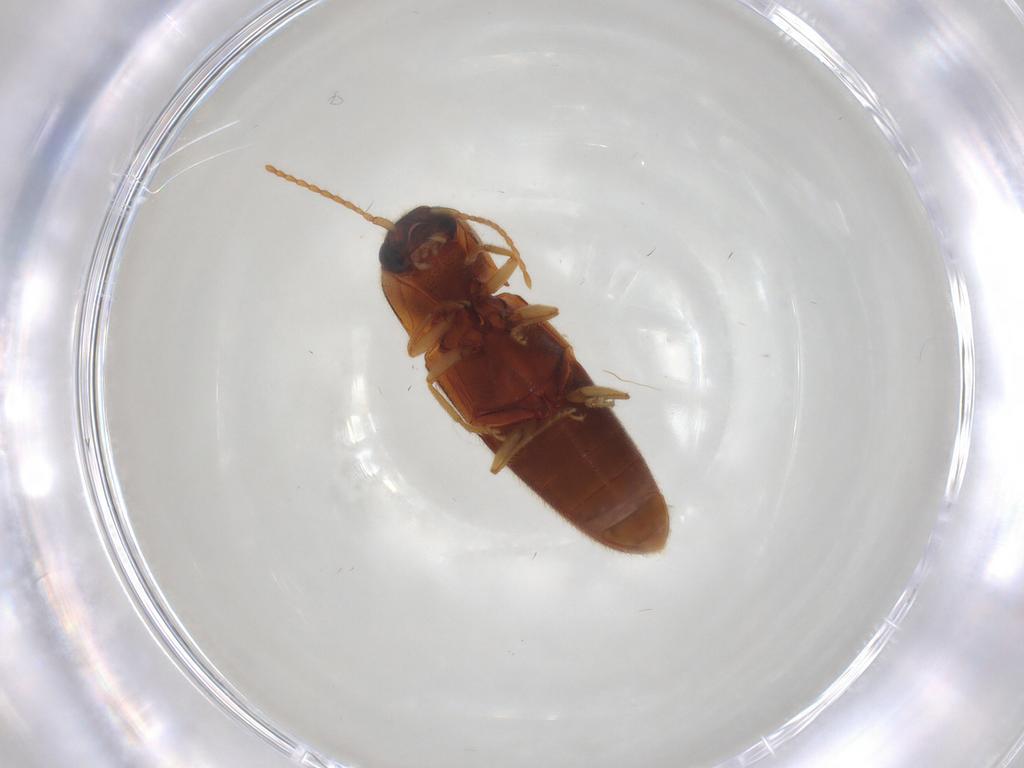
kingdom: Animalia
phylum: Arthropoda
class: Insecta
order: Coleoptera
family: Elateridae
